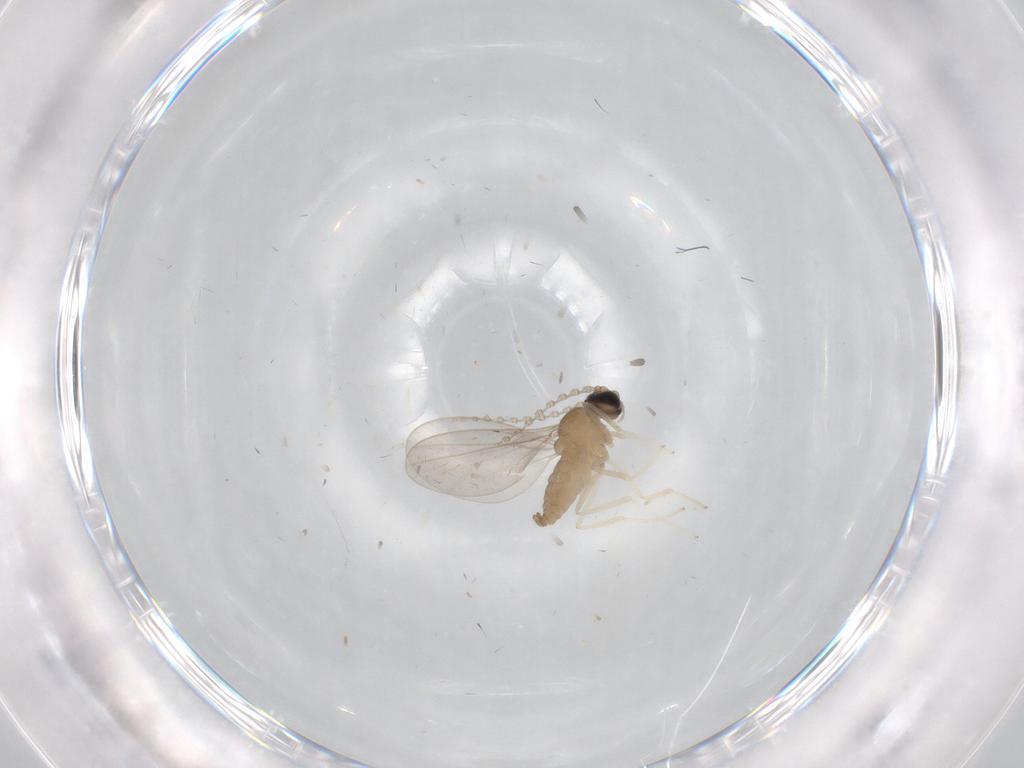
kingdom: Animalia
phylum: Arthropoda
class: Insecta
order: Diptera
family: Cecidomyiidae
